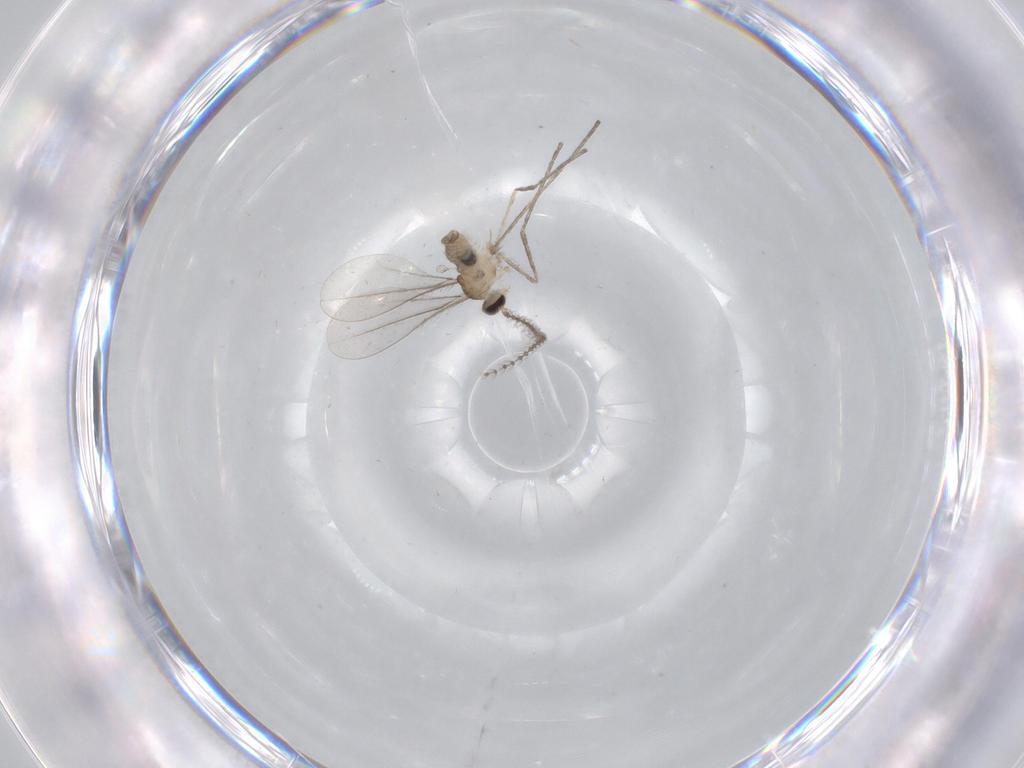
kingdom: Animalia
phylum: Arthropoda
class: Insecta
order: Diptera
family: Cecidomyiidae
